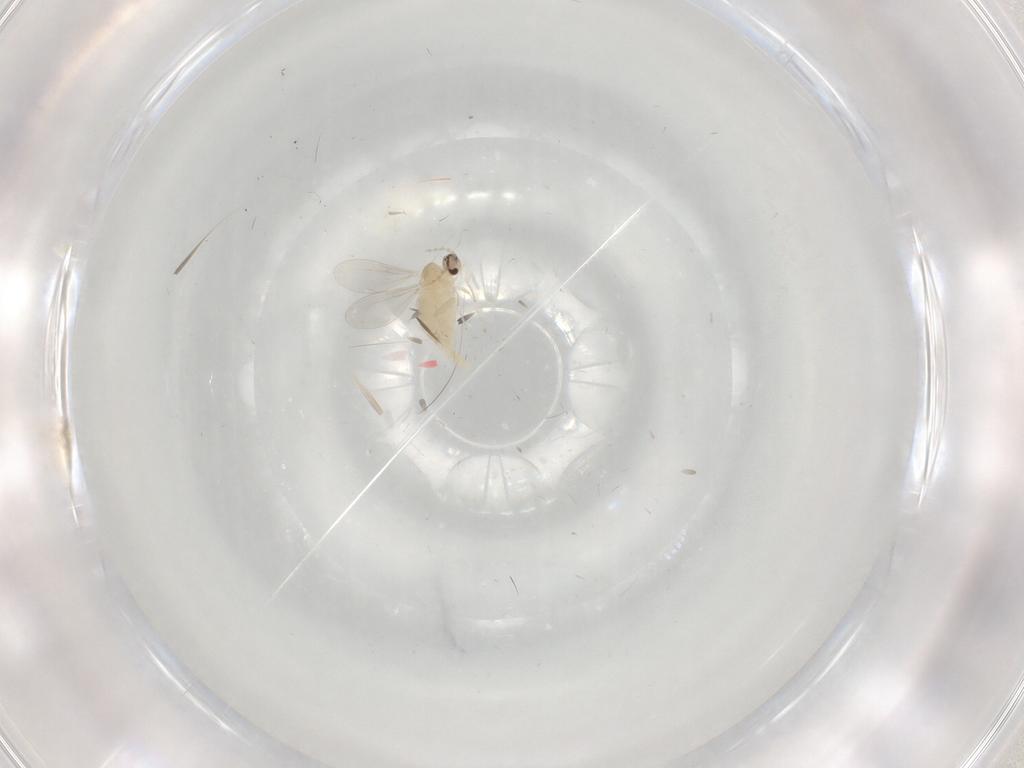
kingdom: Animalia
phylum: Arthropoda
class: Insecta
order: Diptera
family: Cecidomyiidae
